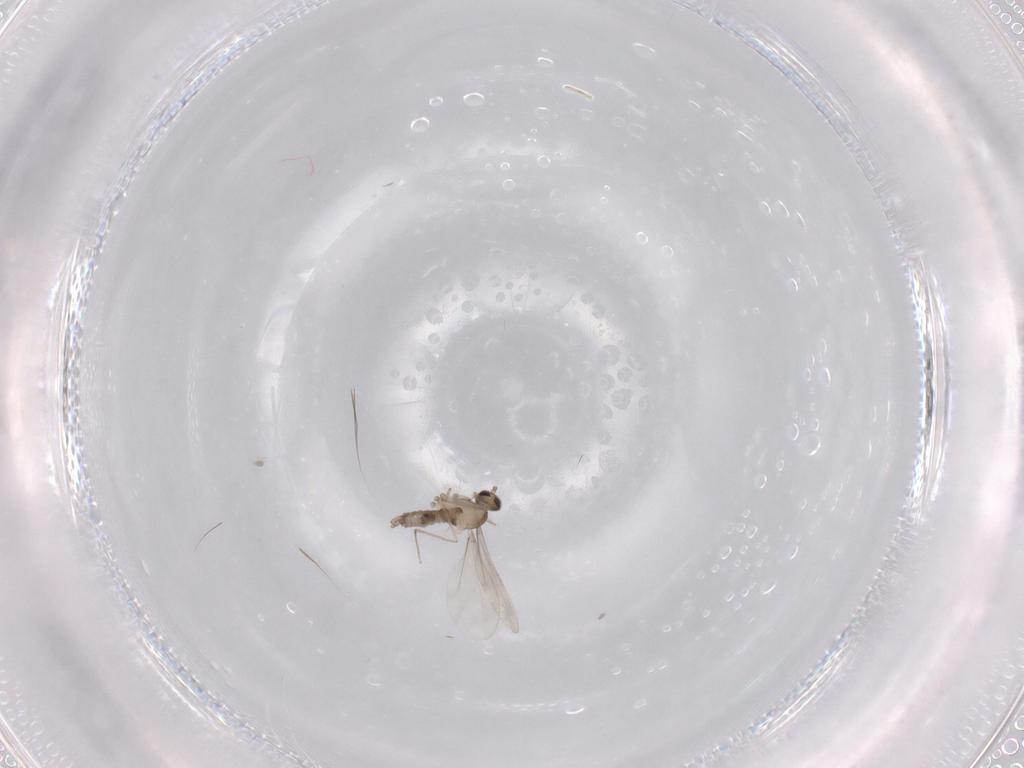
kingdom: Animalia
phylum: Arthropoda
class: Insecta
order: Diptera
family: Cecidomyiidae
